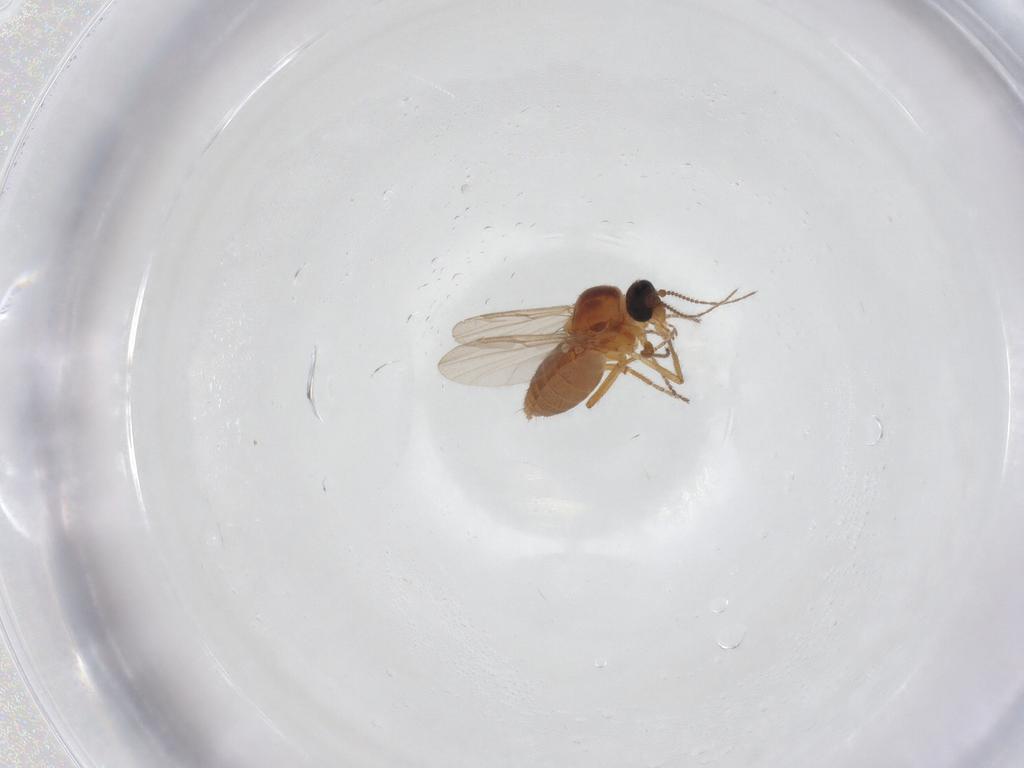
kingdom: Animalia
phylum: Arthropoda
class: Insecta
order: Diptera
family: Ceratopogonidae
